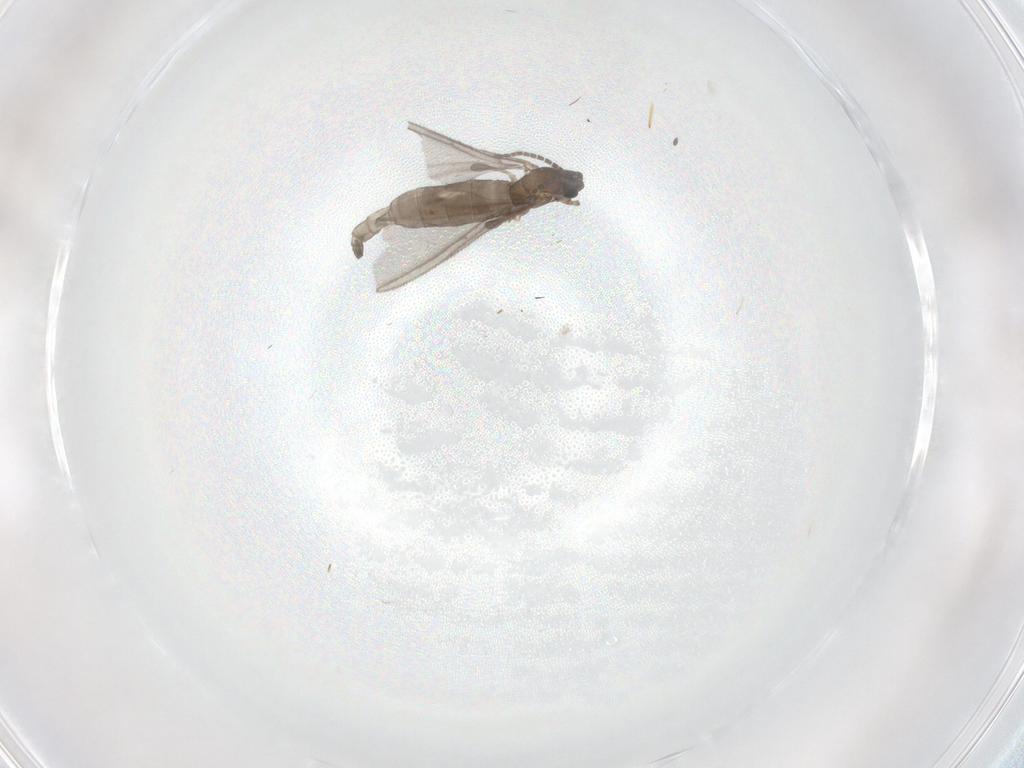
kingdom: Animalia
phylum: Arthropoda
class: Insecta
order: Diptera
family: Sciaridae
